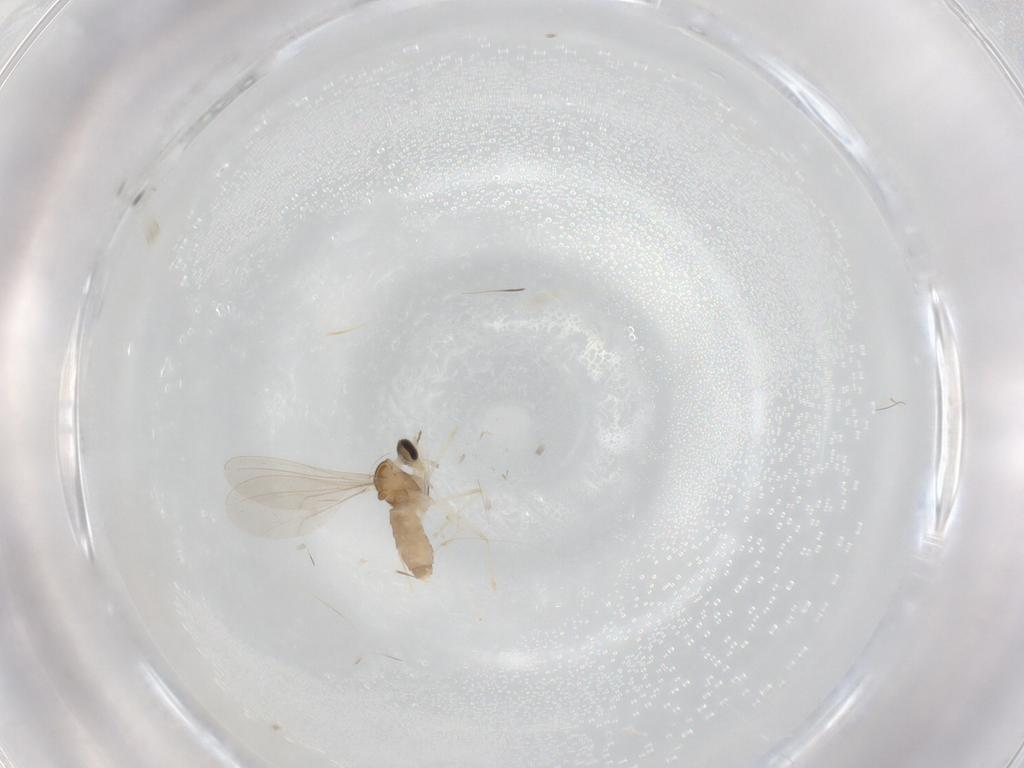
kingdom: Animalia
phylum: Arthropoda
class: Insecta
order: Diptera
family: Cecidomyiidae
